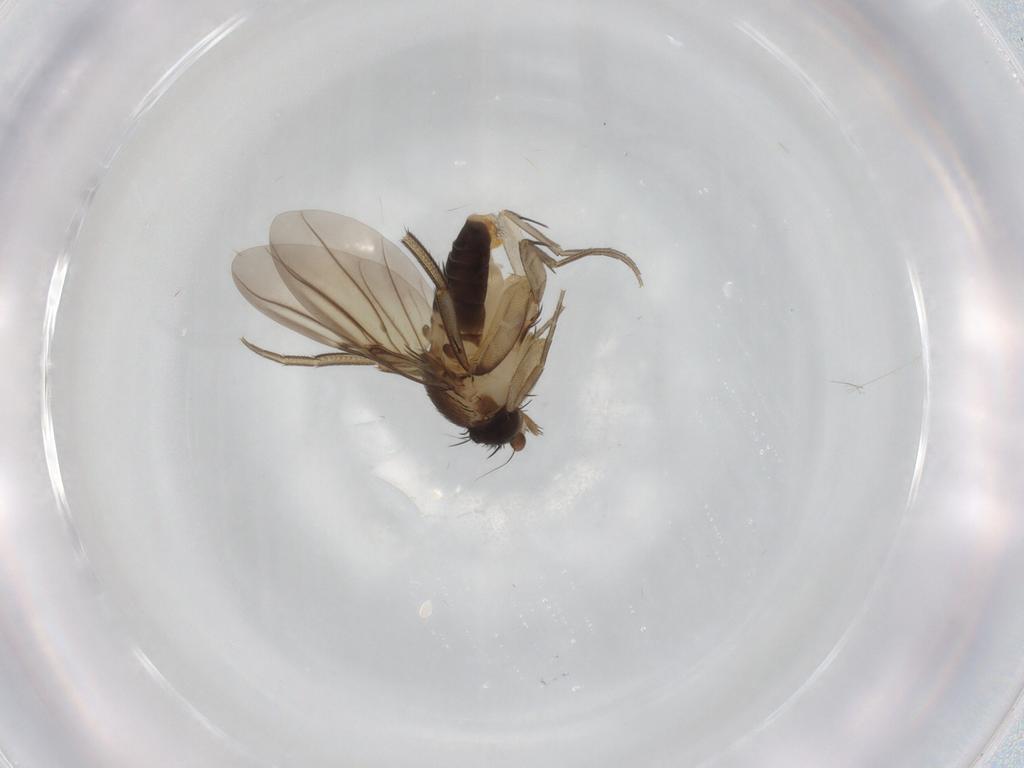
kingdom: Animalia
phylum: Arthropoda
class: Insecta
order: Diptera
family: Phoridae
